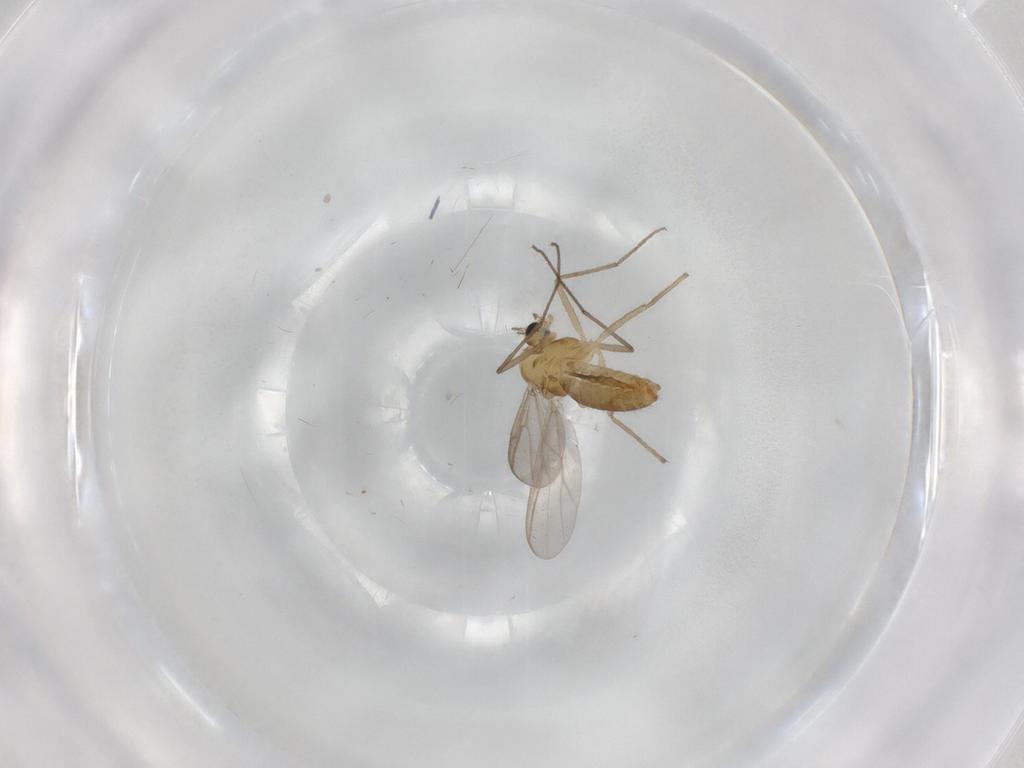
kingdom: Animalia
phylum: Arthropoda
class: Insecta
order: Diptera
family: Chironomidae
